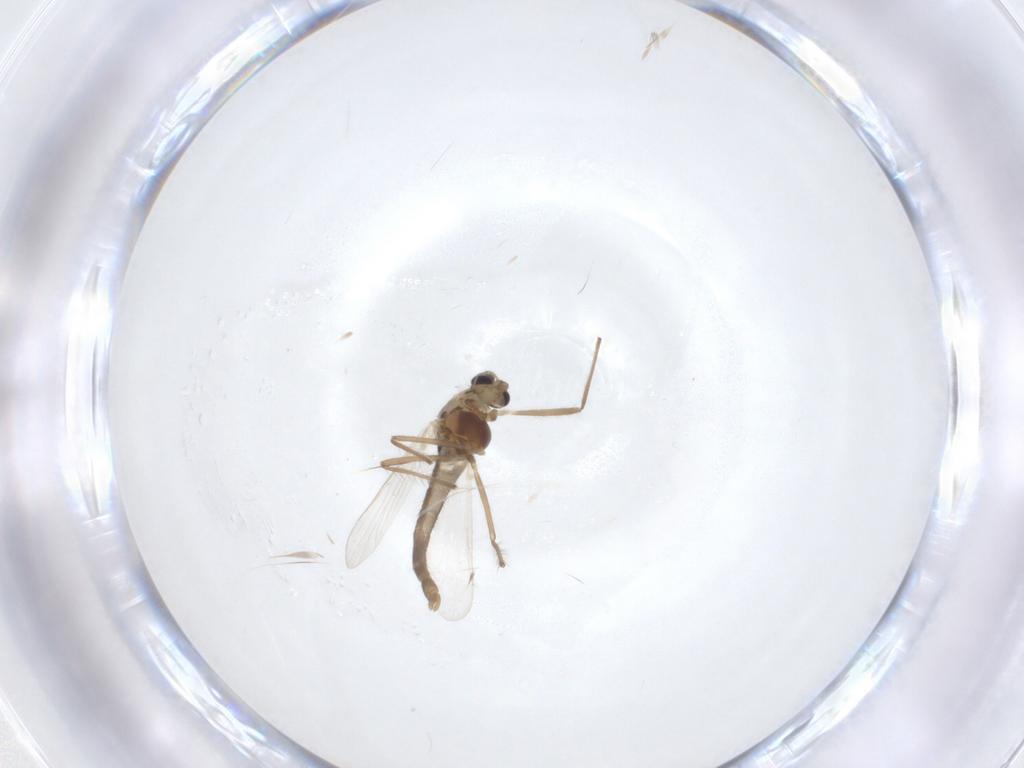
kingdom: Animalia
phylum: Arthropoda
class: Insecta
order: Diptera
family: Chironomidae
